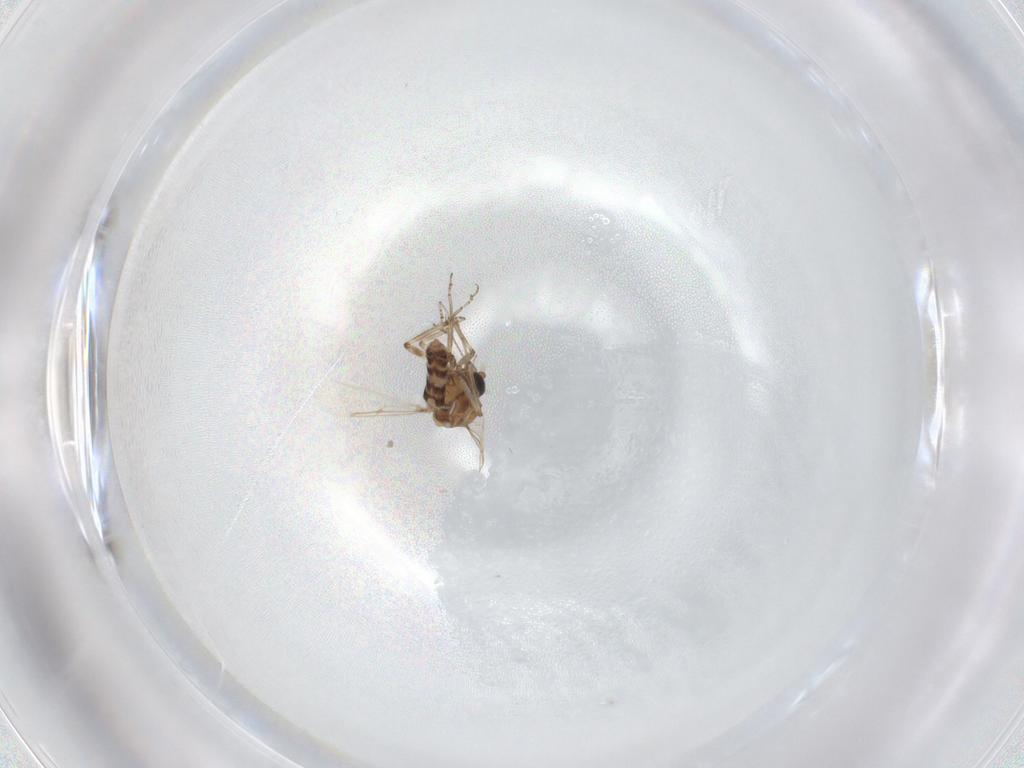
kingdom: Animalia
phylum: Arthropoda
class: Insecta
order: Diptera
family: Ceratopogonidae
